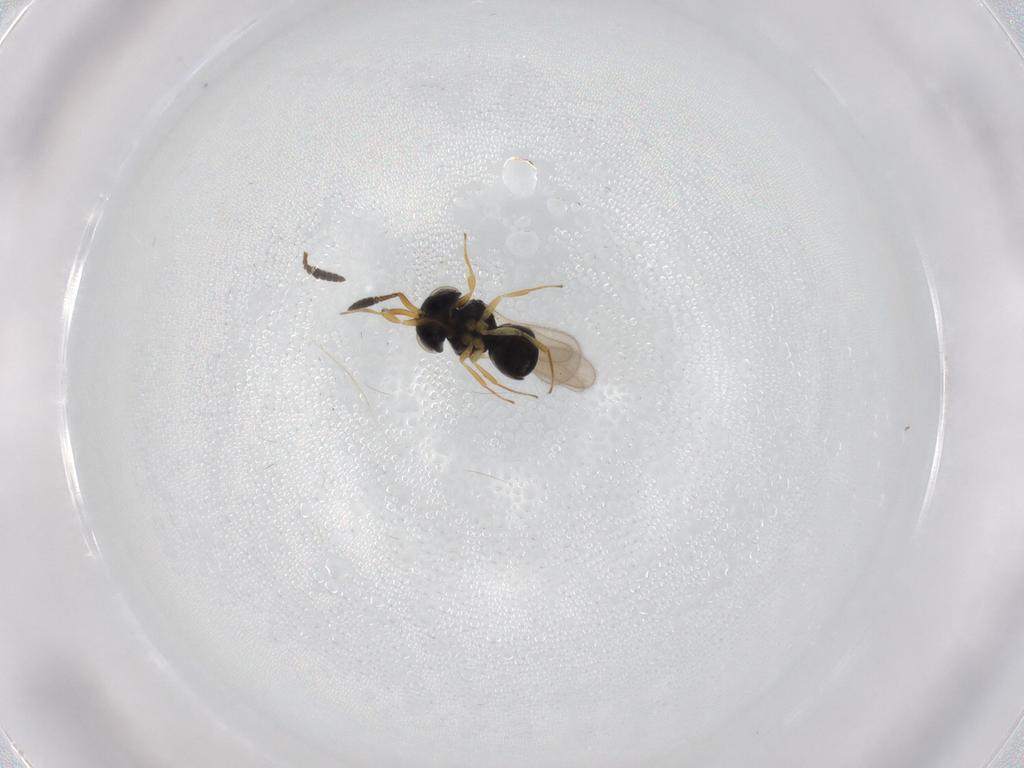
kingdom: Animalia
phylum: Arthropoda
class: Insecta
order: Hymenoptera
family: Scelionidae
